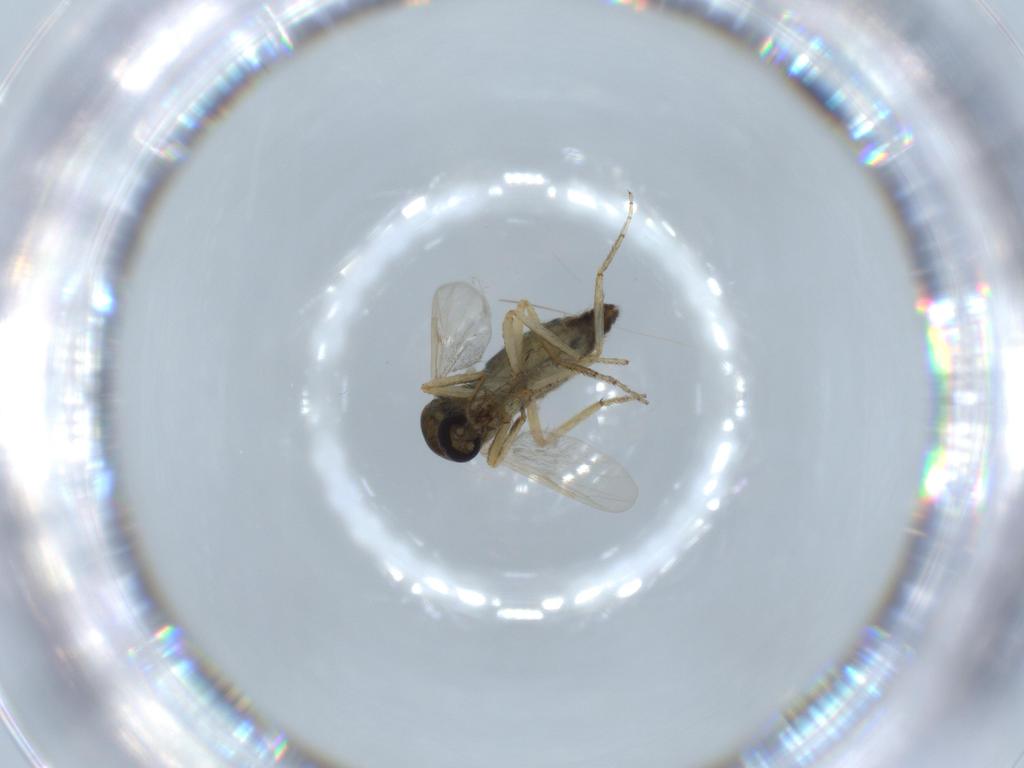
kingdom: Animalia
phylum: Arthropoda
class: Insecta
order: Diptera
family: Ceratopogonidae
